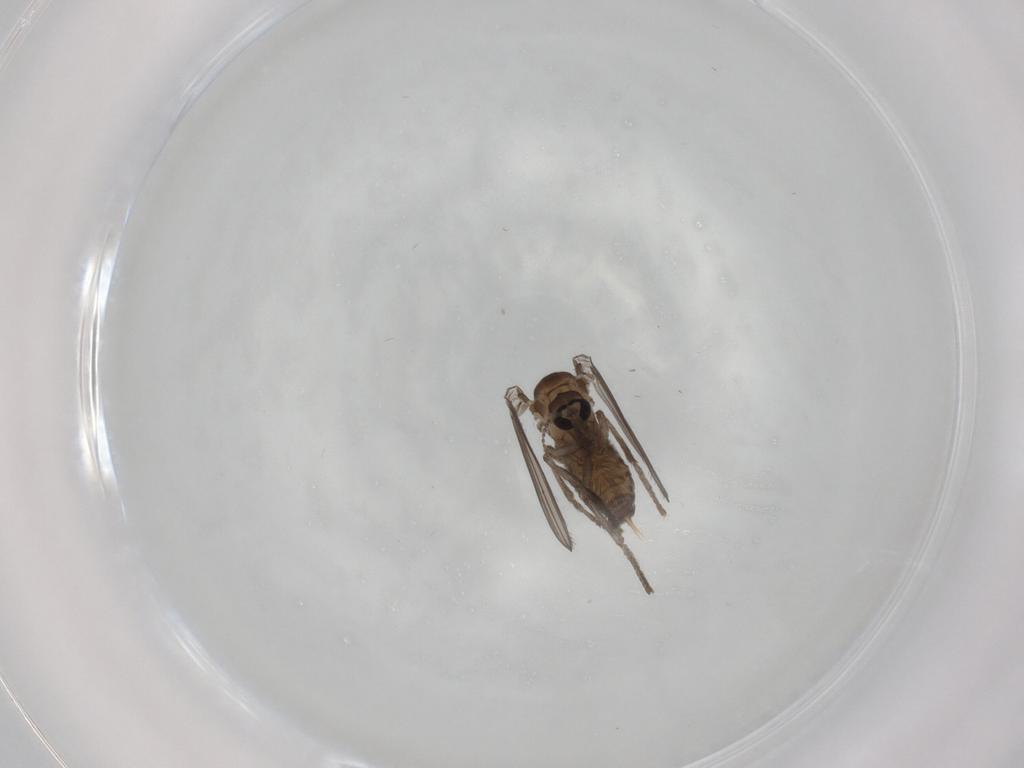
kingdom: Animalia
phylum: Arthropoda
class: Insecta
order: Diptera
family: Psychodidae
